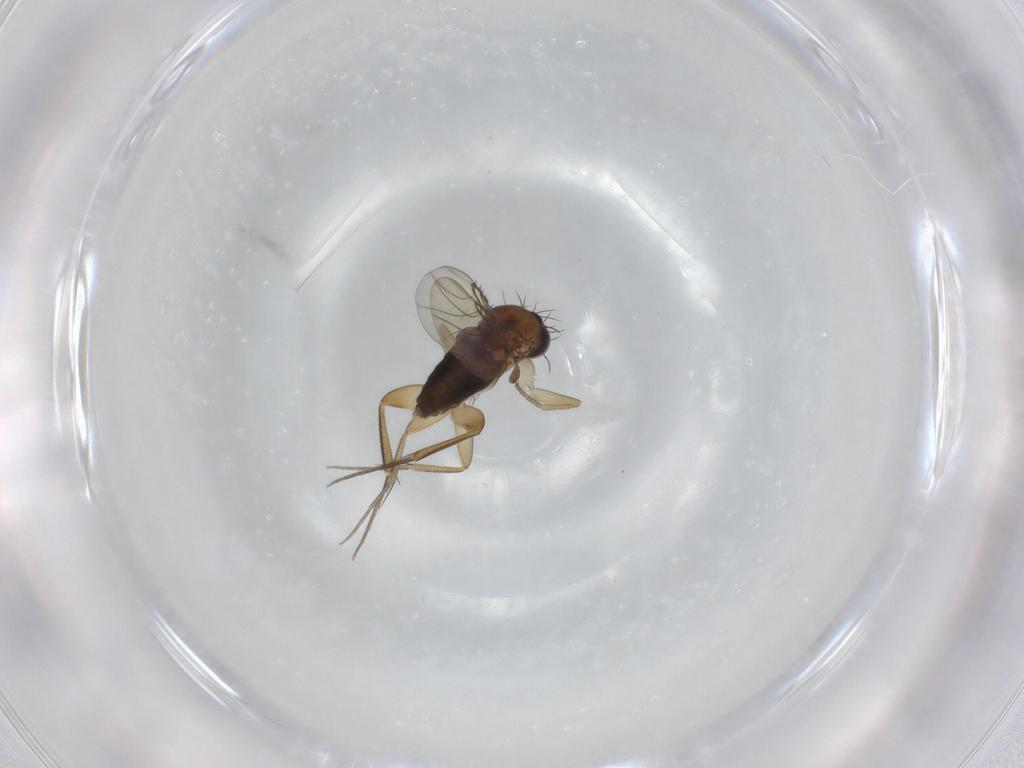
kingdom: Animalia
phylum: Arthropoda
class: Insecta
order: Diptera
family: Phoridae
